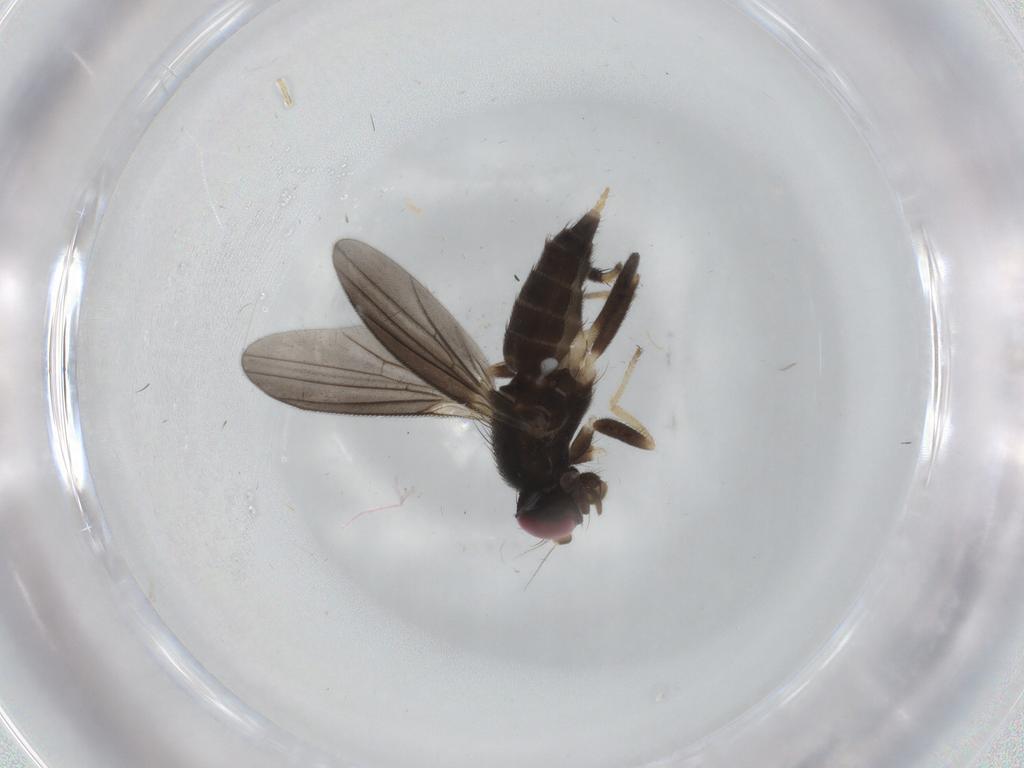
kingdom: Animalia
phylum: Arthropoda
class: Insecta
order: Diptera
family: Clusiidae
